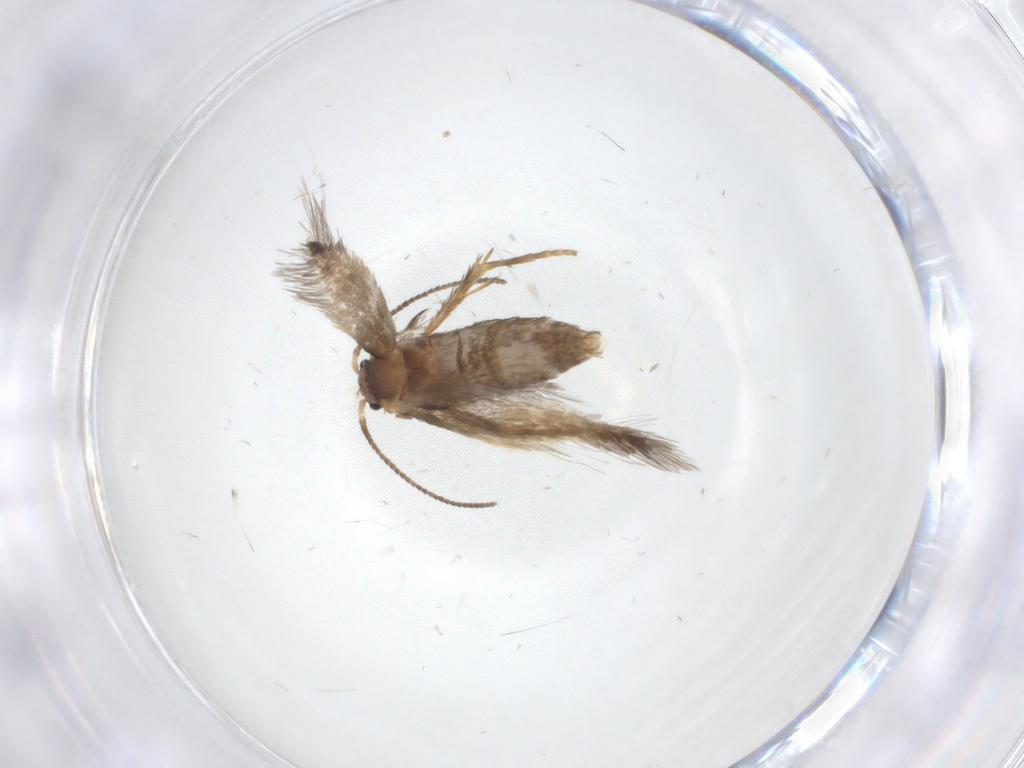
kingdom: Animalia
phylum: Arthropoda
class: Insecta
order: Lepidoptera
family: Nepticulidae
